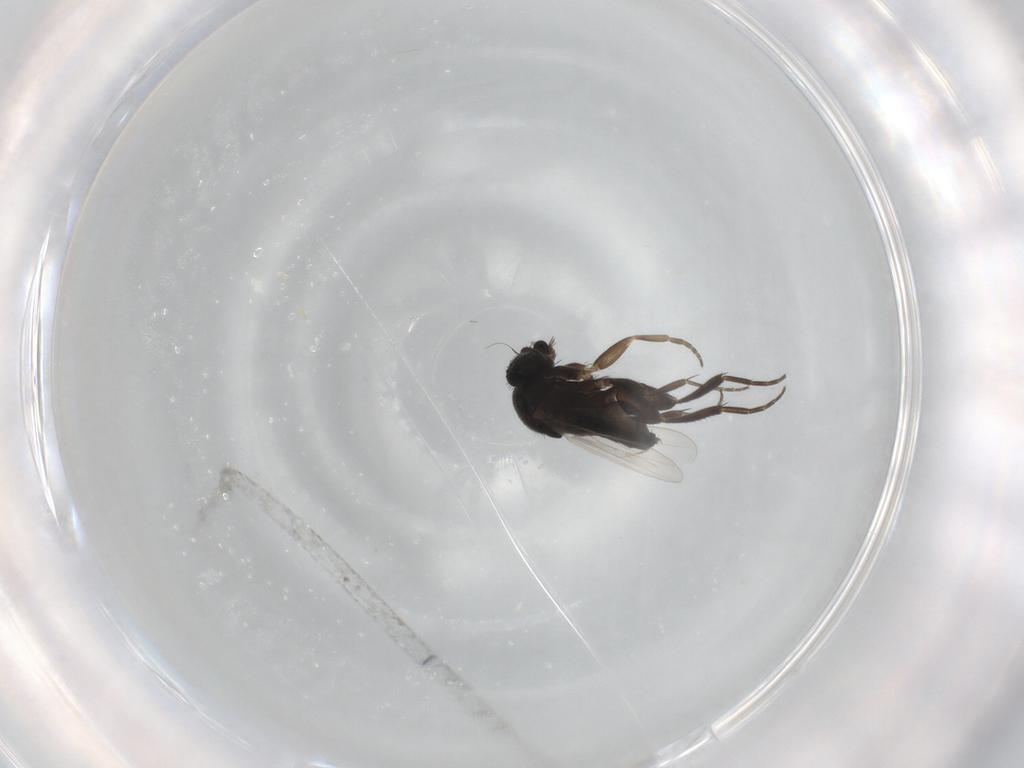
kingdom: Animalia
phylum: Arthropoda
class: Insecta
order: Diptera
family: Phoridae
